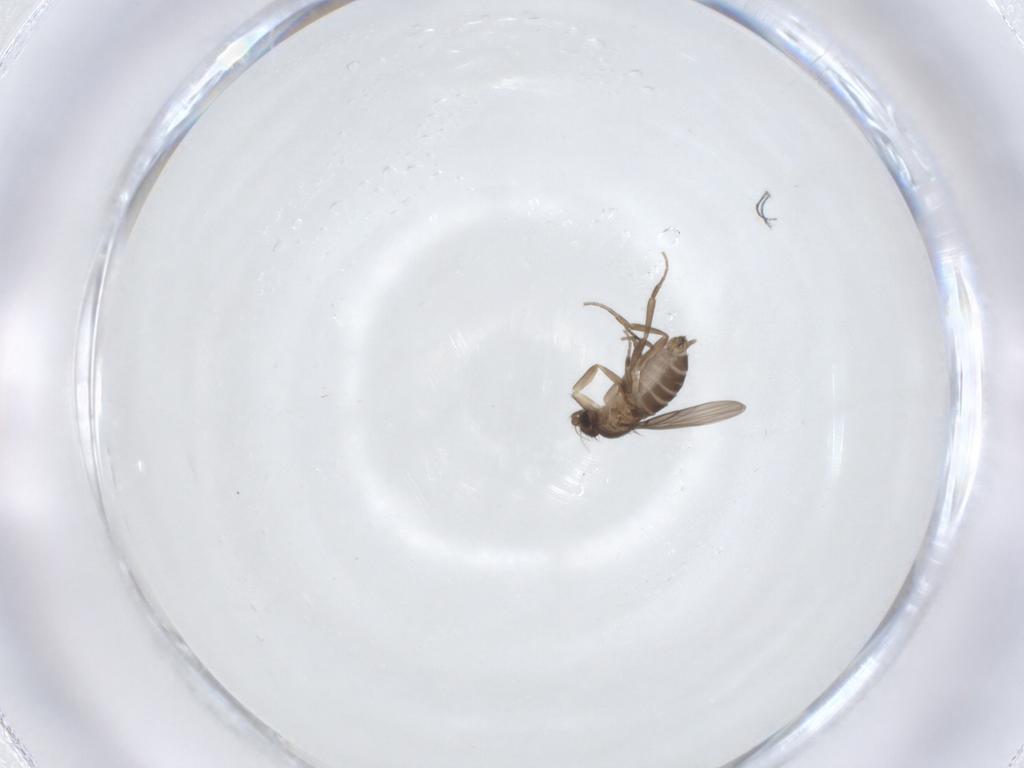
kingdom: Animalia
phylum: Arthropoda
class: Insecta
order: Diptera
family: Phoridae
